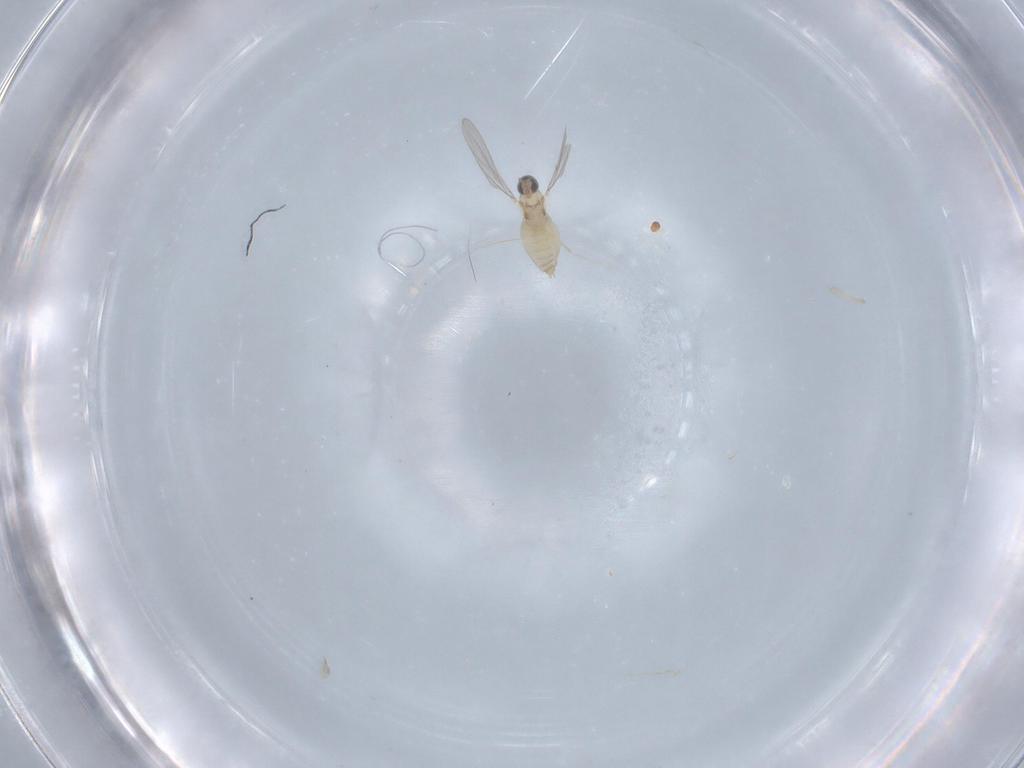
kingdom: Animalia
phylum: Arthropoda
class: Insecta
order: Diptera
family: Cecidomyiidae
